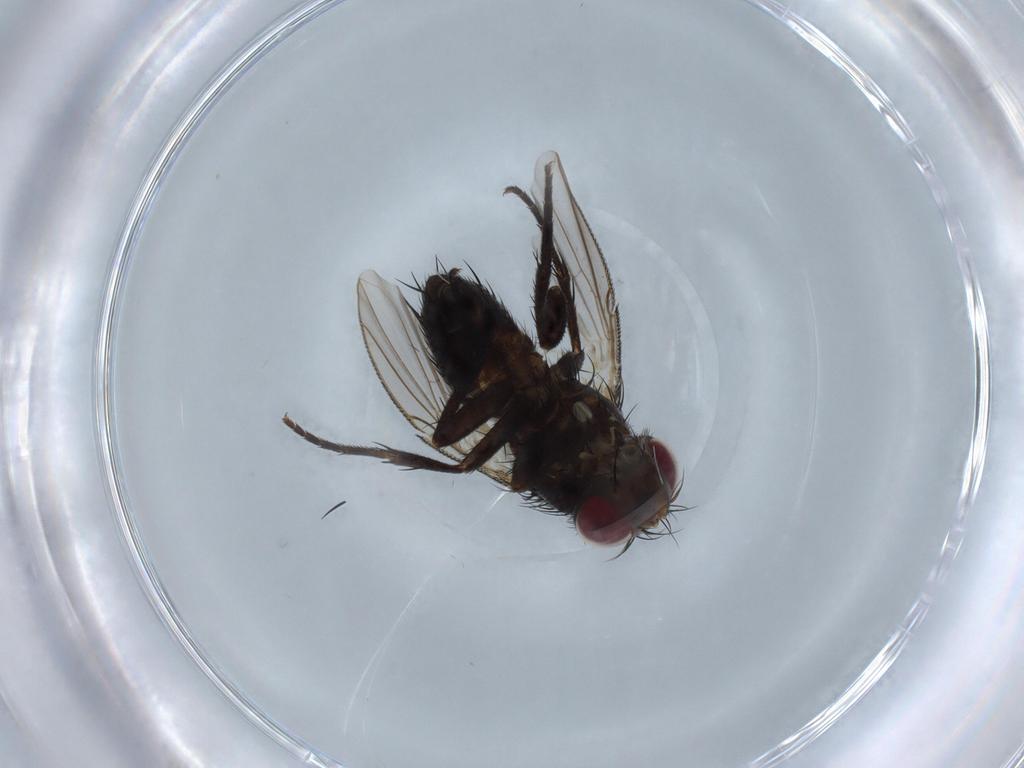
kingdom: Animalia
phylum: Arthropoda
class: Insecta
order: Diptera
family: Tachinidae
